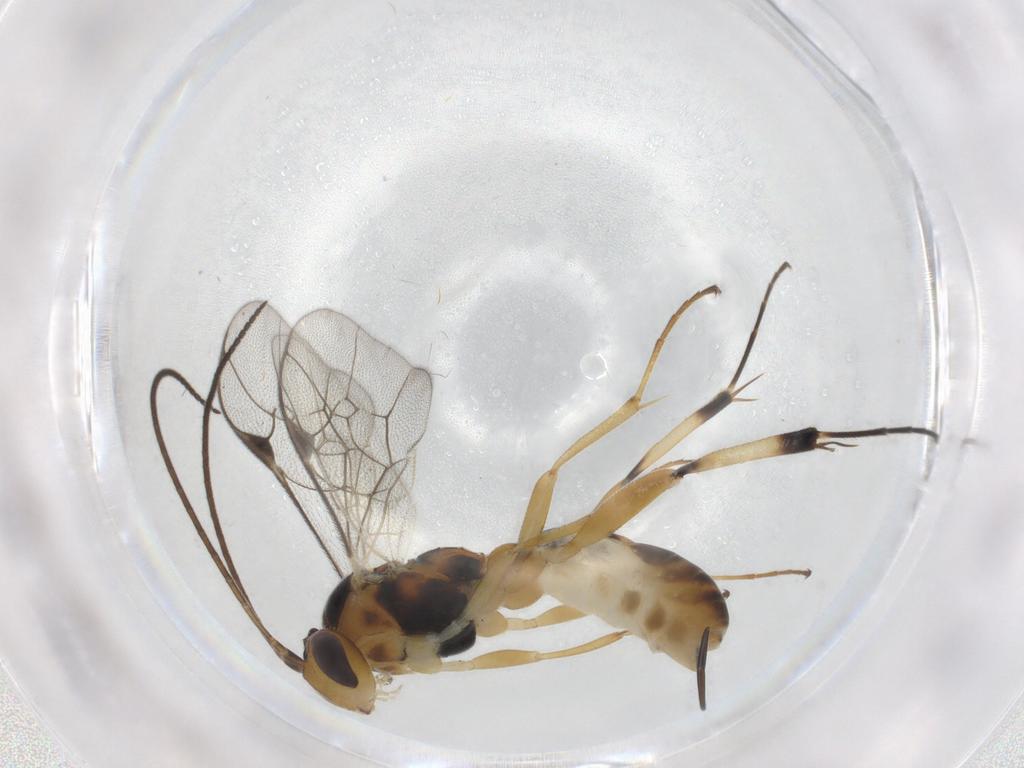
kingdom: Animalia
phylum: Arthropoda
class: Insecta
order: Hymenoptera
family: Ichneumonidae
